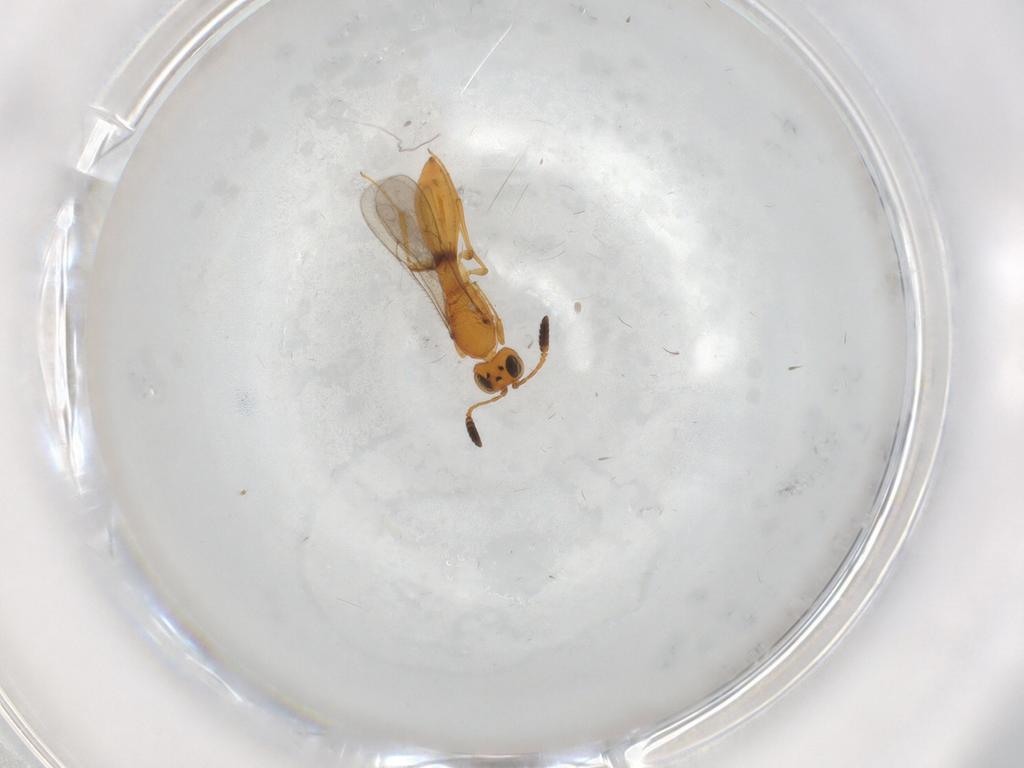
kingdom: Animalia
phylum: Arthropoda
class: Insecta
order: Hymenoptera
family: Scelionidae
